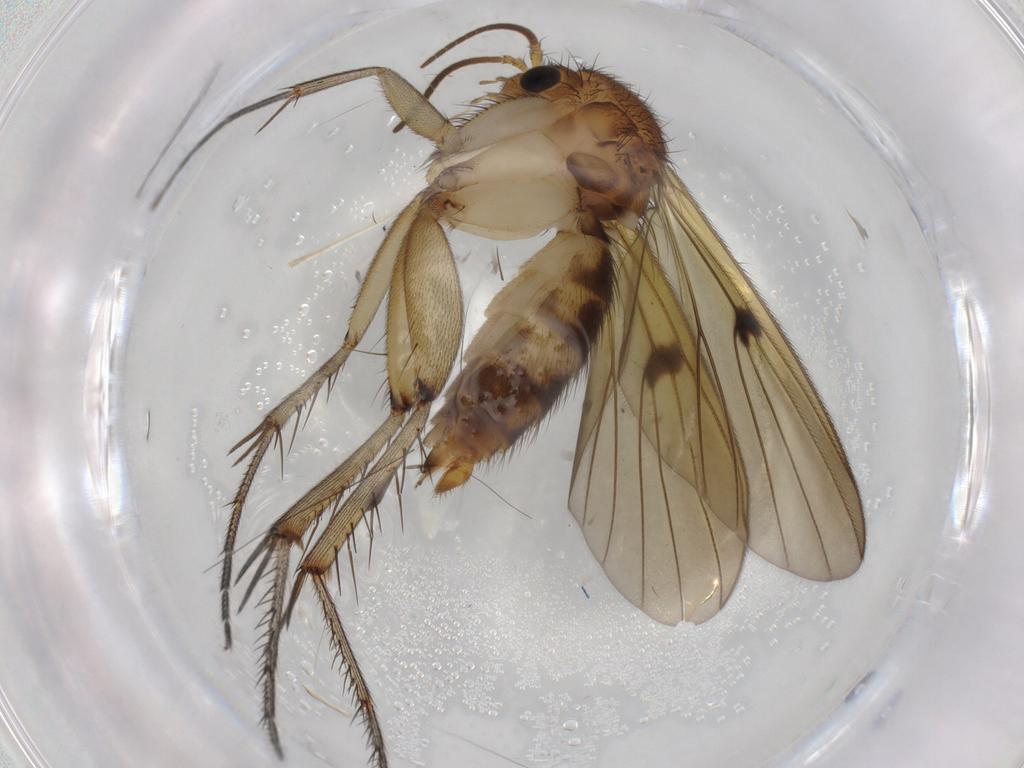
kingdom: Animalia
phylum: Arthropoda
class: Insecta
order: Diptera
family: Mycetophilidae
